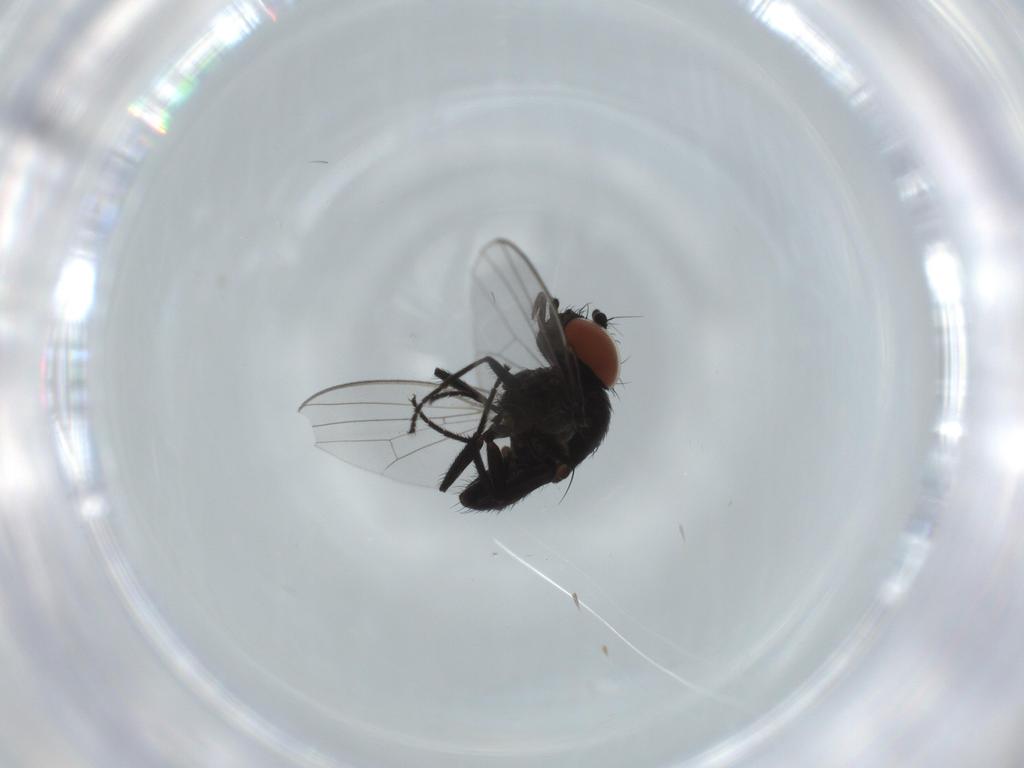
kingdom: Animalia
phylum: Arthropoda
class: Insecta
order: Diptera
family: Milichiidae
